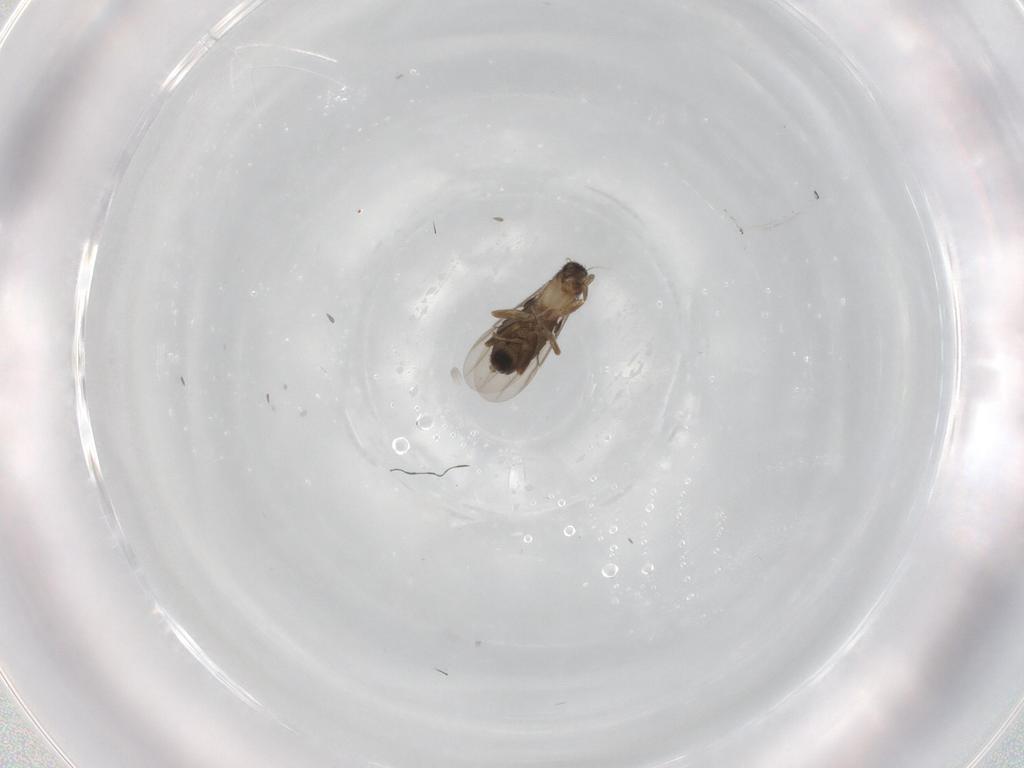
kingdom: Animalia
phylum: Arthropoda
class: Insecta
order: Diptera
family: Phoridae
